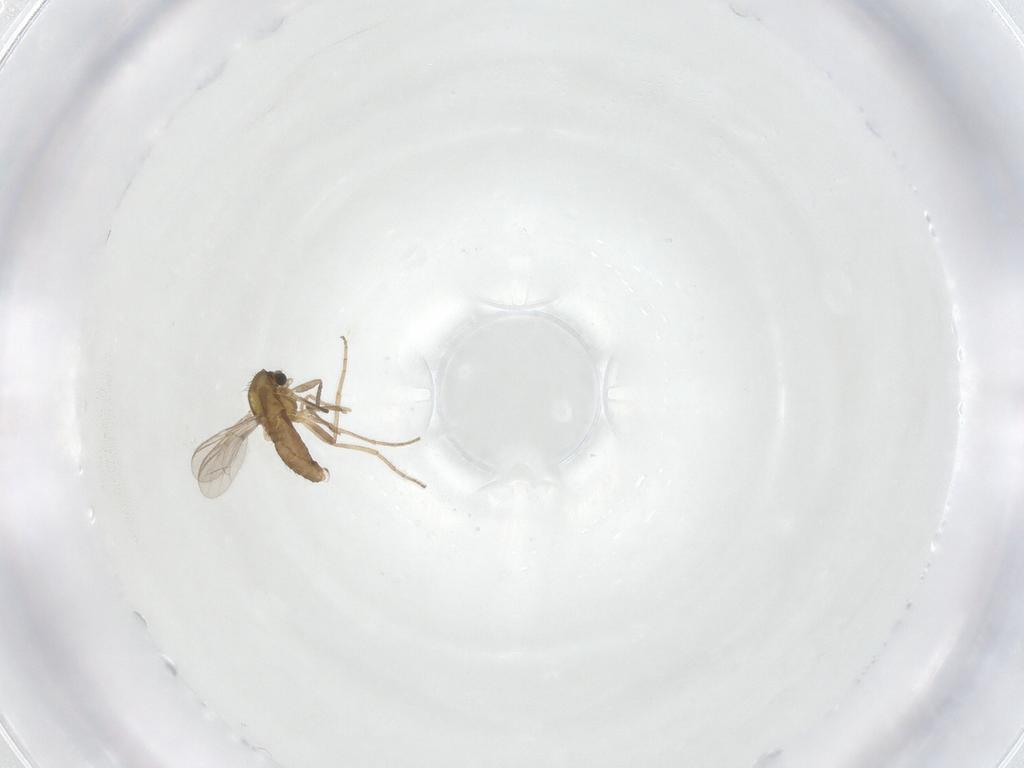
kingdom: Animalia
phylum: Arthropoda
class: Insecta
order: Diptera
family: Chironomidae
